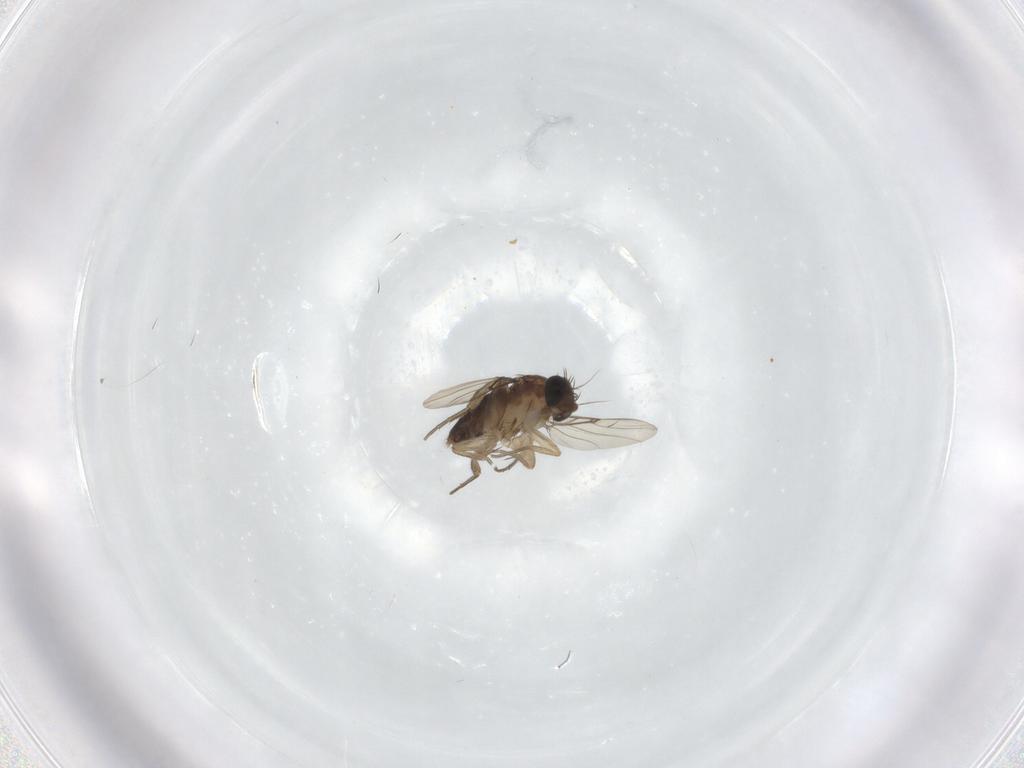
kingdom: Animalia
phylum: Arthropoda
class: Insecta
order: Diptera
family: Phoridae
